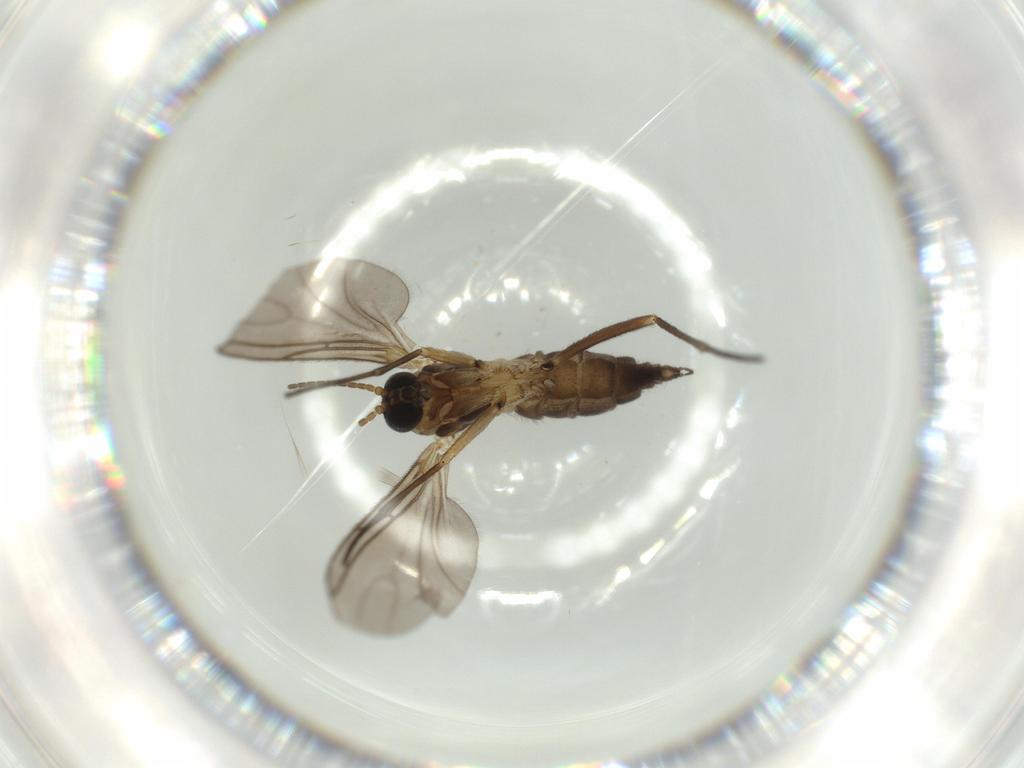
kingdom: Animalia
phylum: Arthropoda
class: Insecta
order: Diptera
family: Sciaridae
